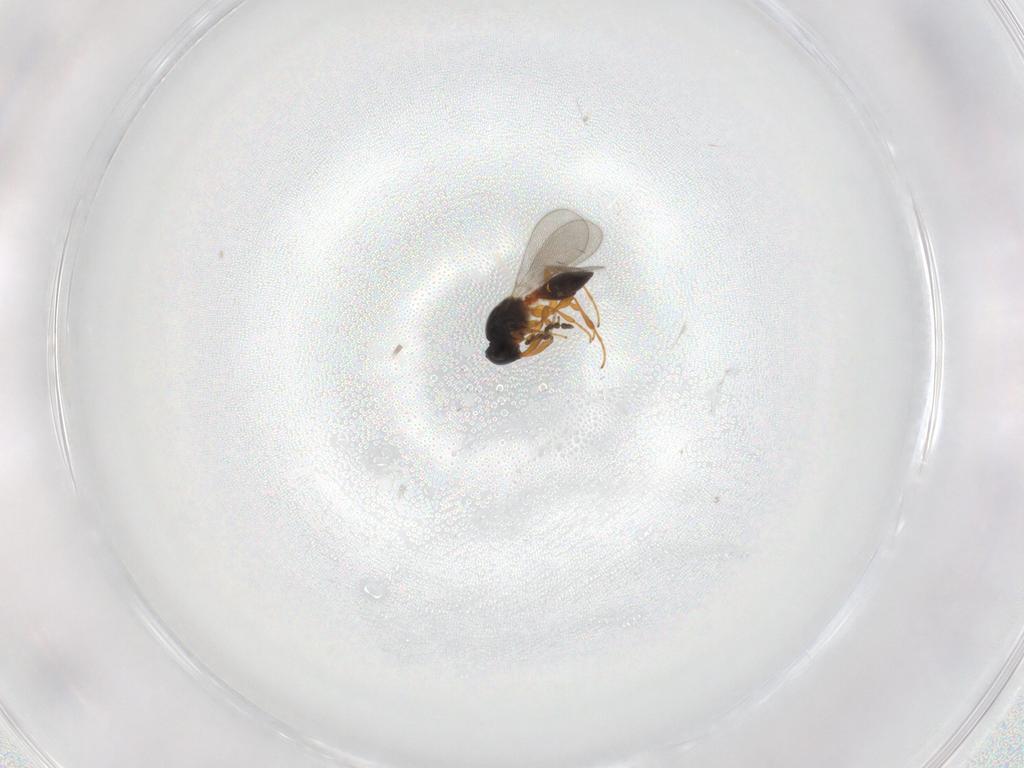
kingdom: Animalia
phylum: Arthropoda
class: Insecta
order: Hymenoptera
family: Platygastridae
